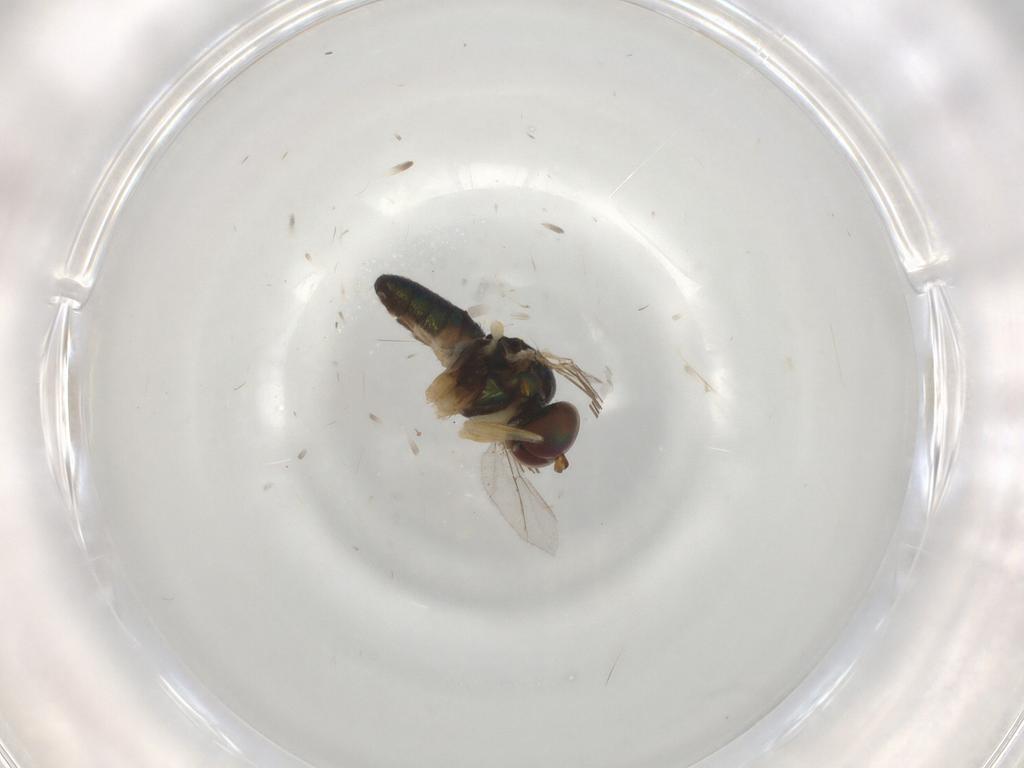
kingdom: Animalia
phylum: Arthropoda
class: Insecta
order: Diptera
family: Dolichopodidae
